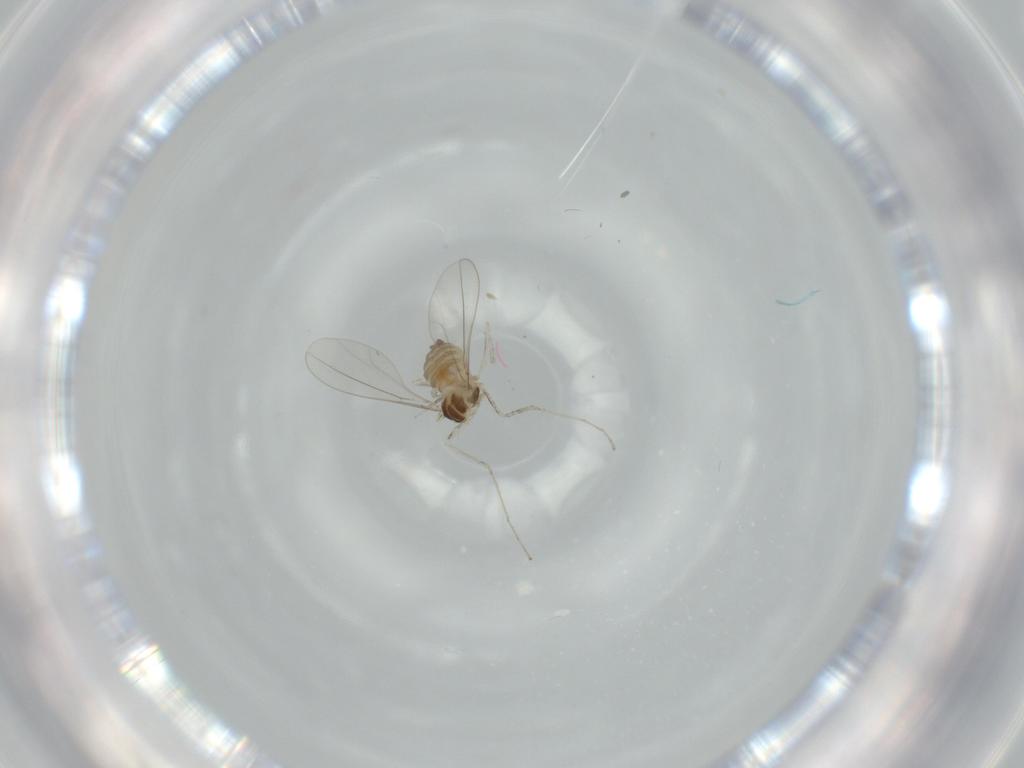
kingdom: Animalia
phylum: Arthropoda
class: Insecta
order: Diptera
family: Cecidomyiidae
